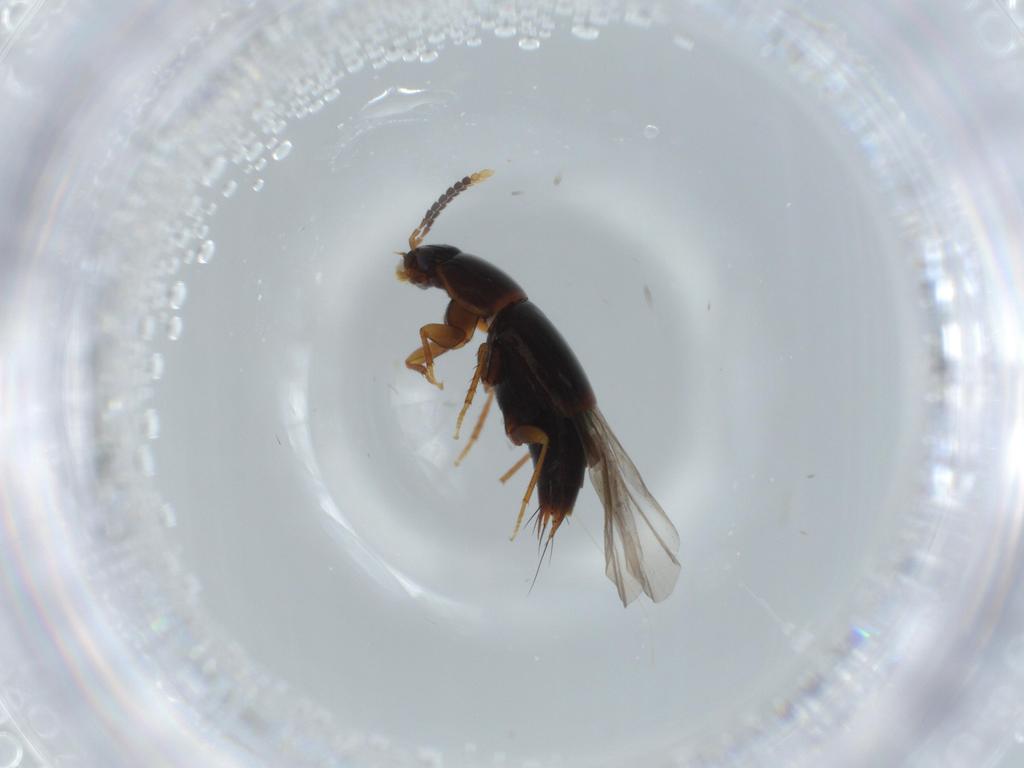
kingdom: Animalia
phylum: Arthropoda
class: Insecta
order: Coleoptera
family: Staphylinidae
